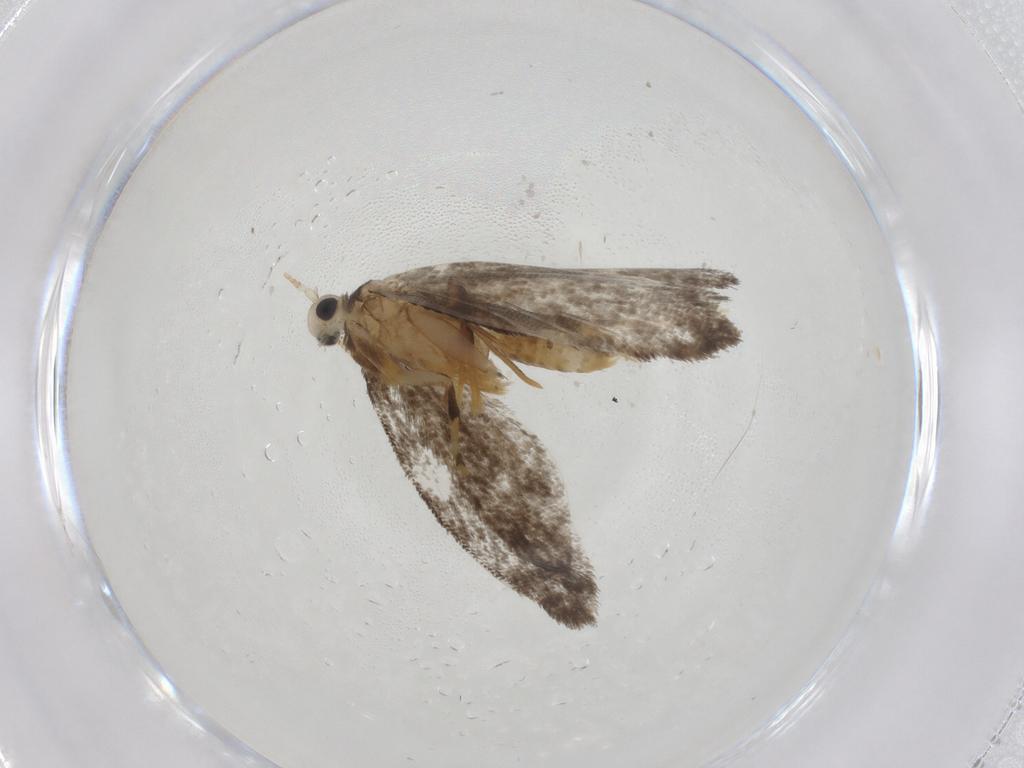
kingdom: Animalia
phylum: Arthropoda
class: Insecta
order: Lepidoptera
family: Psychidae
